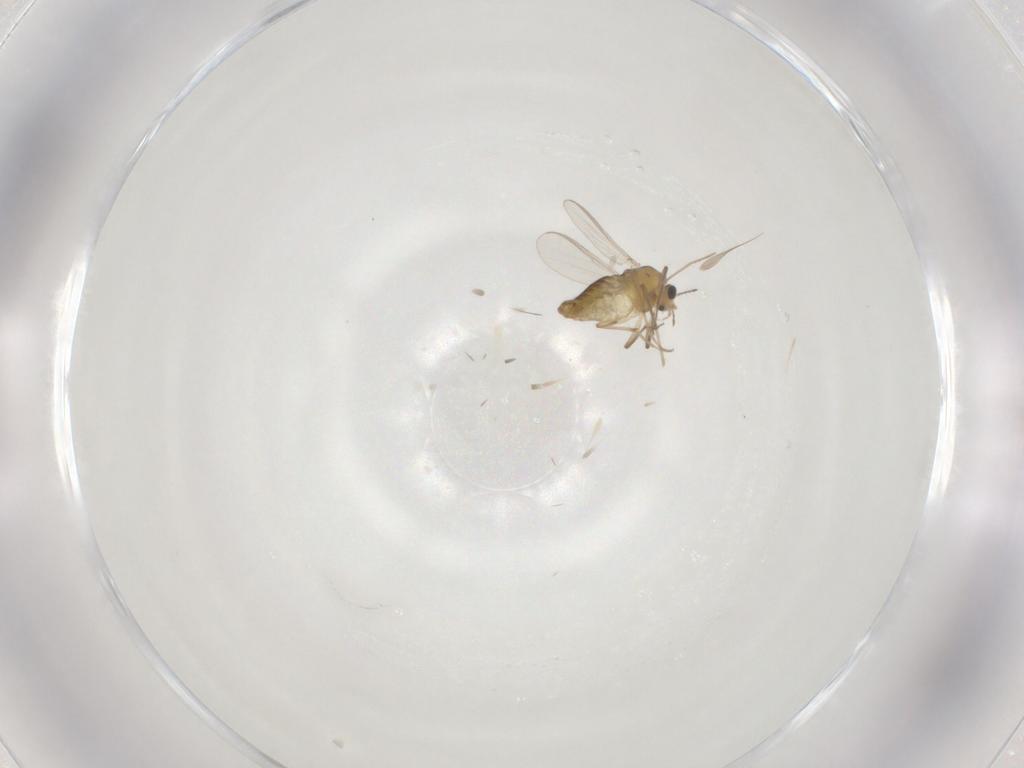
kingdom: Animalia
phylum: Arthropoda
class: Insecta
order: Diptera
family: Chironomidae
